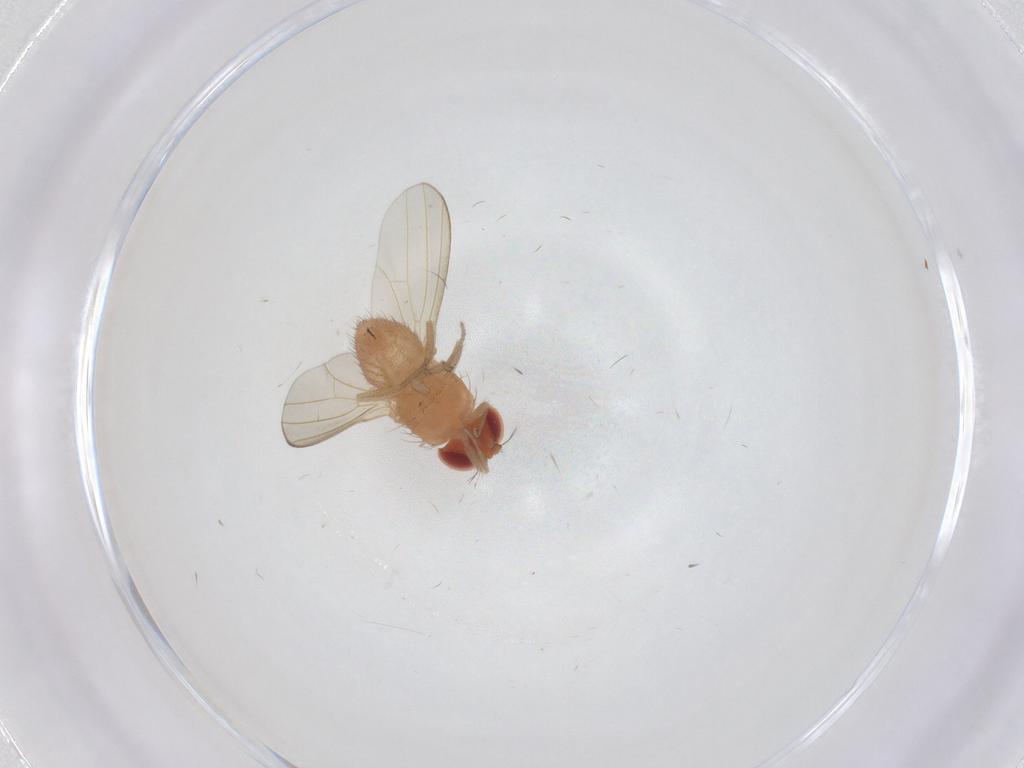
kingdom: Animalia
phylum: Arthropoda
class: Insecta
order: Diptera
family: Drosophilidae
